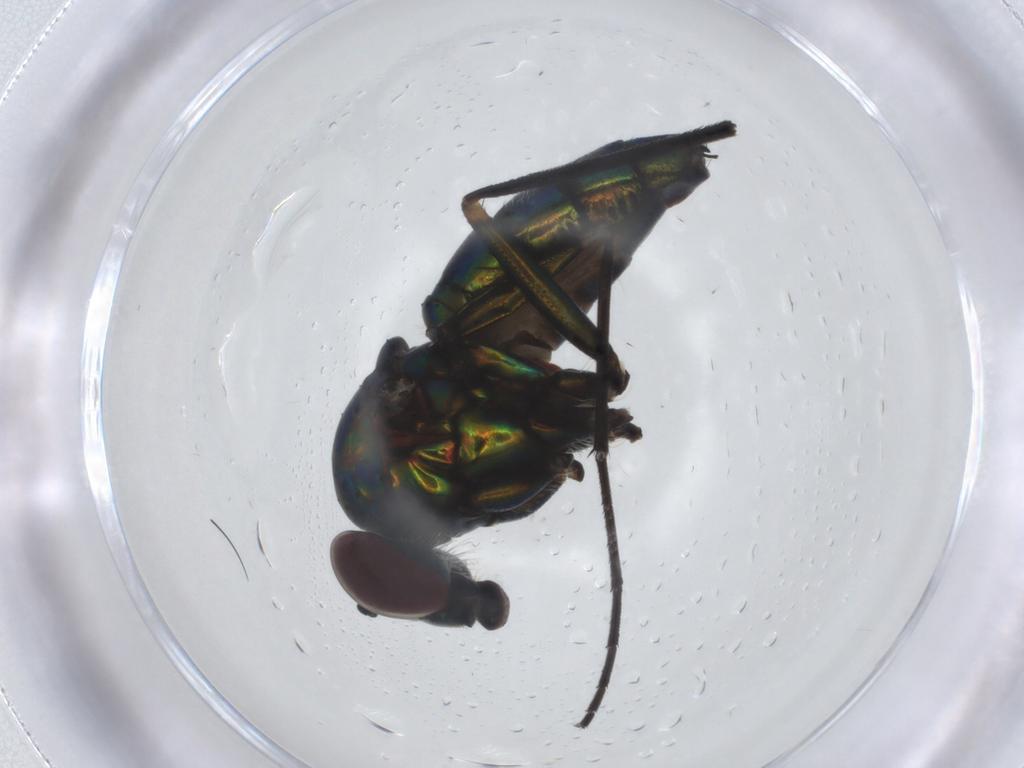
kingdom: Animalia
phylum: Arthropoda
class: Insecta
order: Diptera
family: Dolichopodidae
